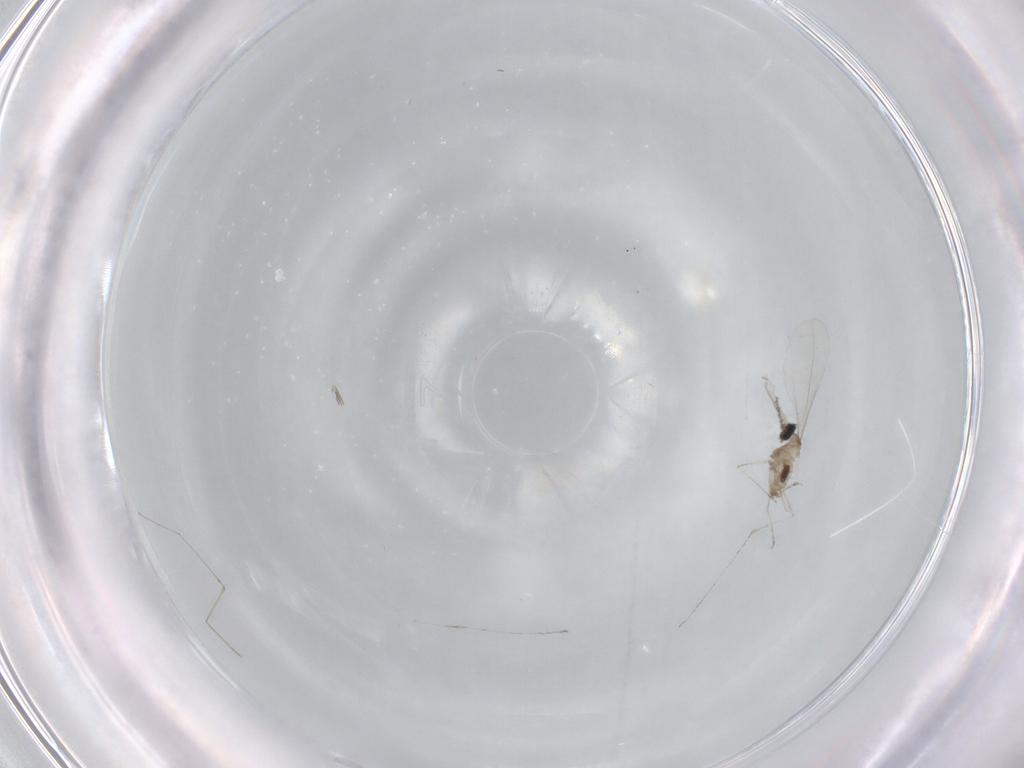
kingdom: Animalia
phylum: Arthropoda
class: Insecta
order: Diptera
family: Cecidomyiidae
